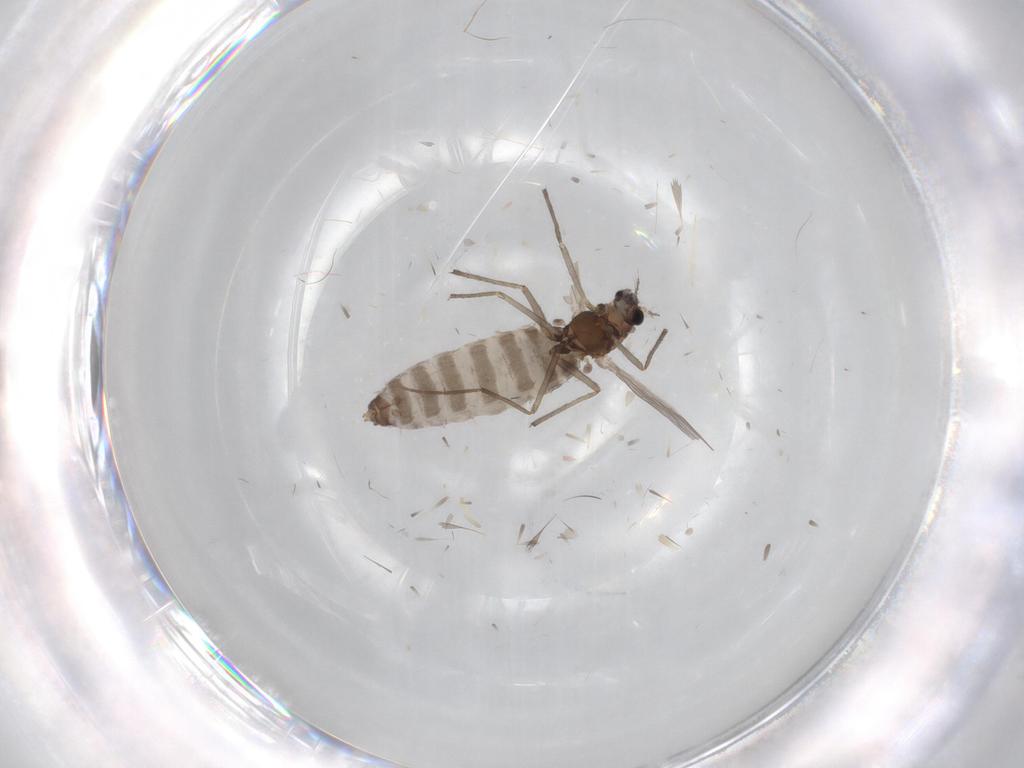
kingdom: Animalia
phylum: Arthropoda
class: Insecta
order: Diptera
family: Chironomidae
